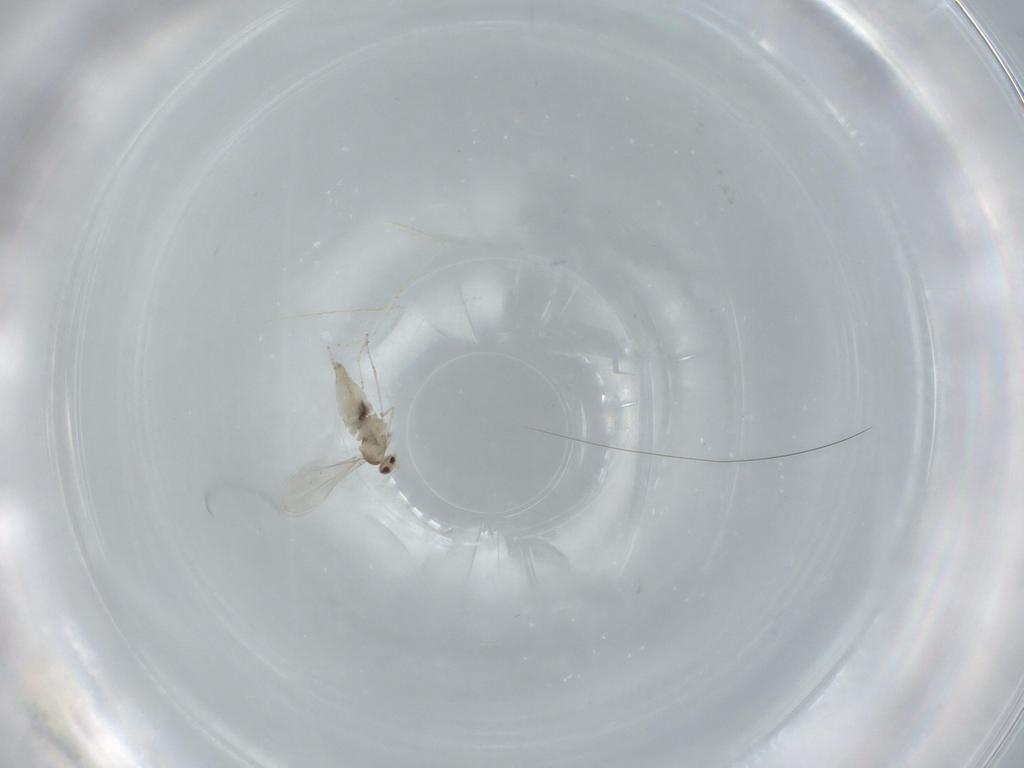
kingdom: Animalia
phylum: Arthropoda
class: Insecta
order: Diptera
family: Cecidomyiidae
